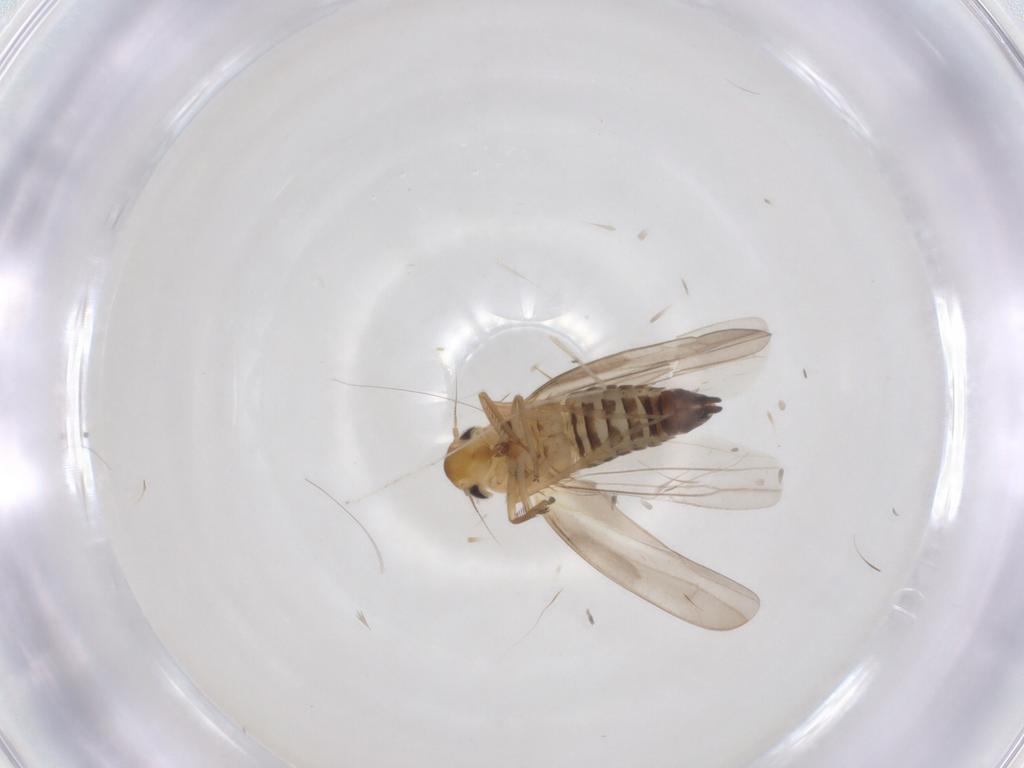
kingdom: Animalia
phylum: Arthropoda
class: Insecta
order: Hemiptera
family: Cicadellidae
